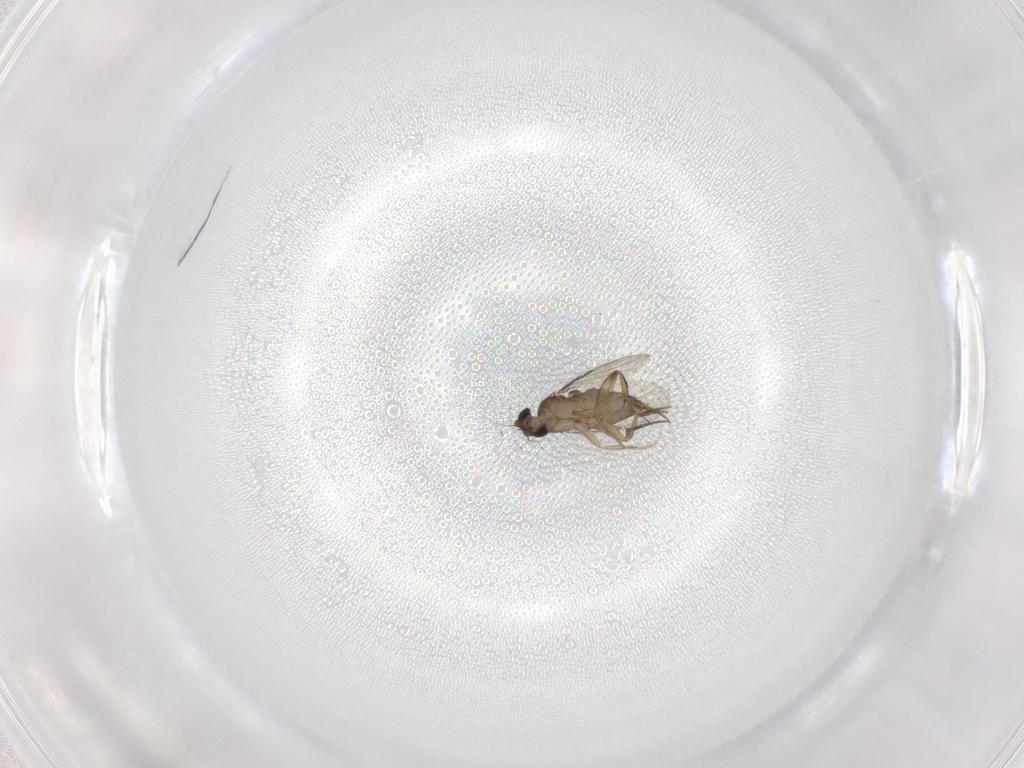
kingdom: Animalia
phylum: Arthropoda
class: Insecta
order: Diptera
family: Phoridae
